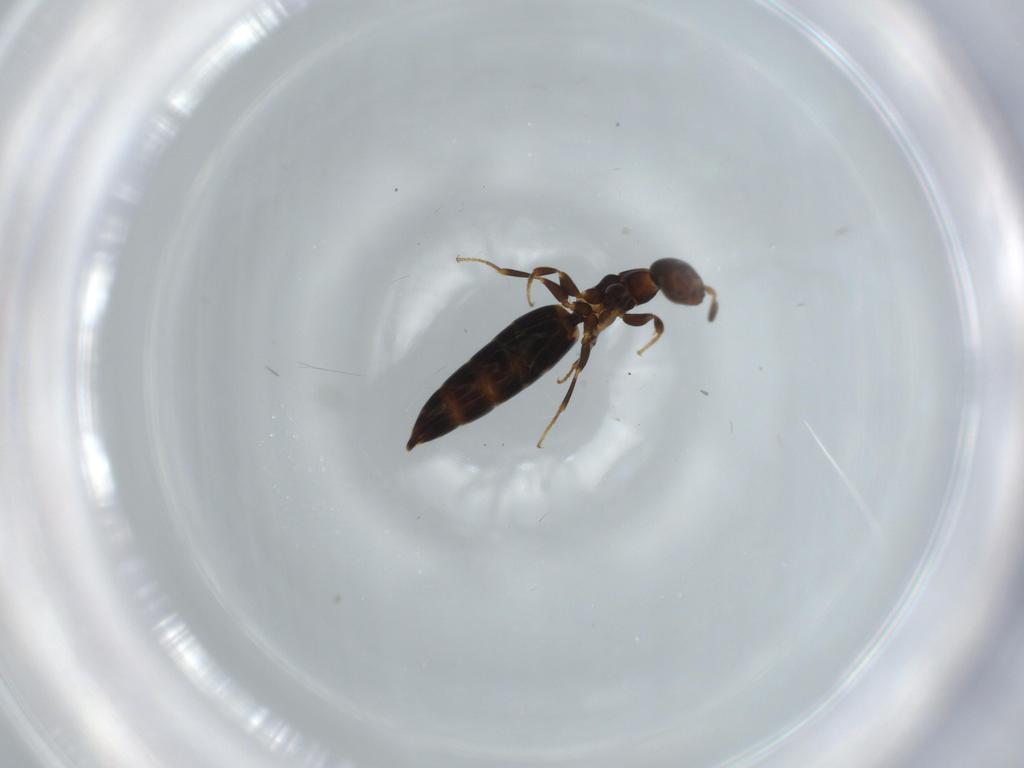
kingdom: Animalia
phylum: Arthropoda
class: Insecta
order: Hymenoptera
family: Bethylidae
